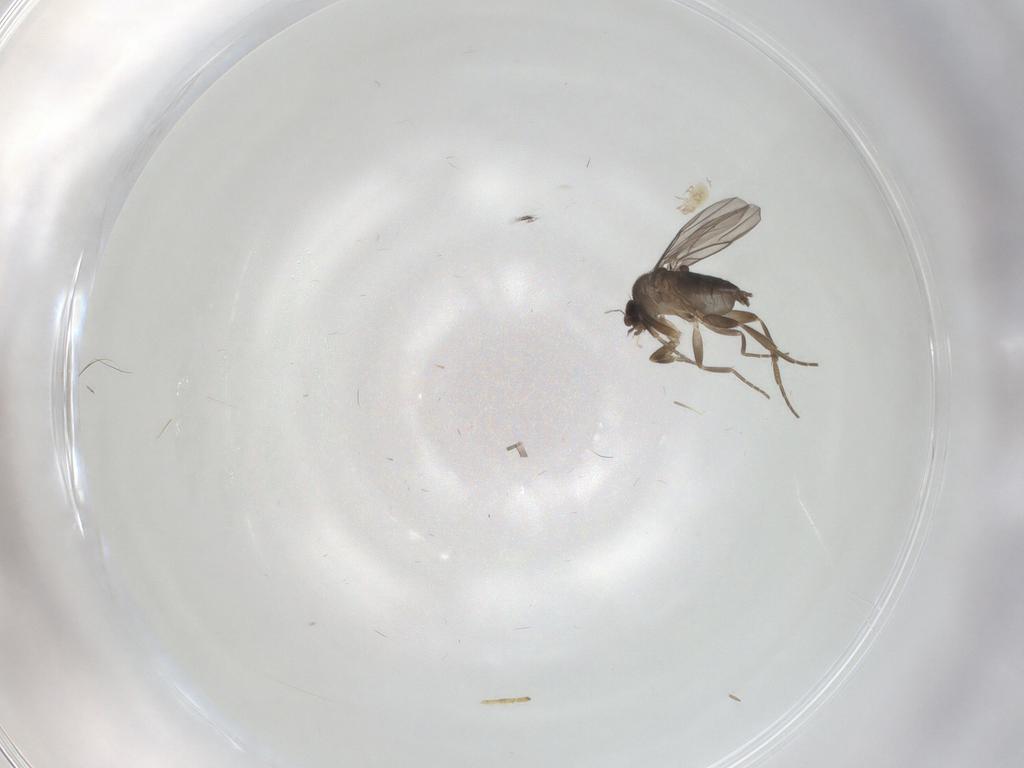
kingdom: Animalia
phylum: Arthropoda
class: Insecta
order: Diptera
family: Phoridae
